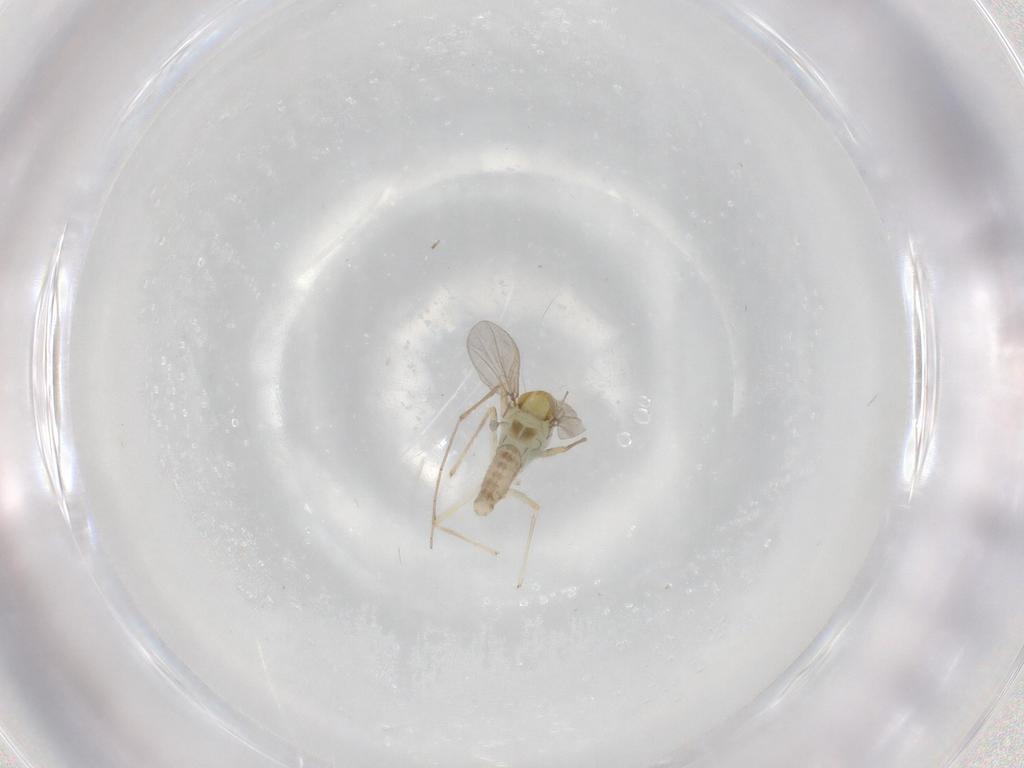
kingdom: Animalia
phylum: Arthropoda
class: Insecta
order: Diptera
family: Chironomidae
